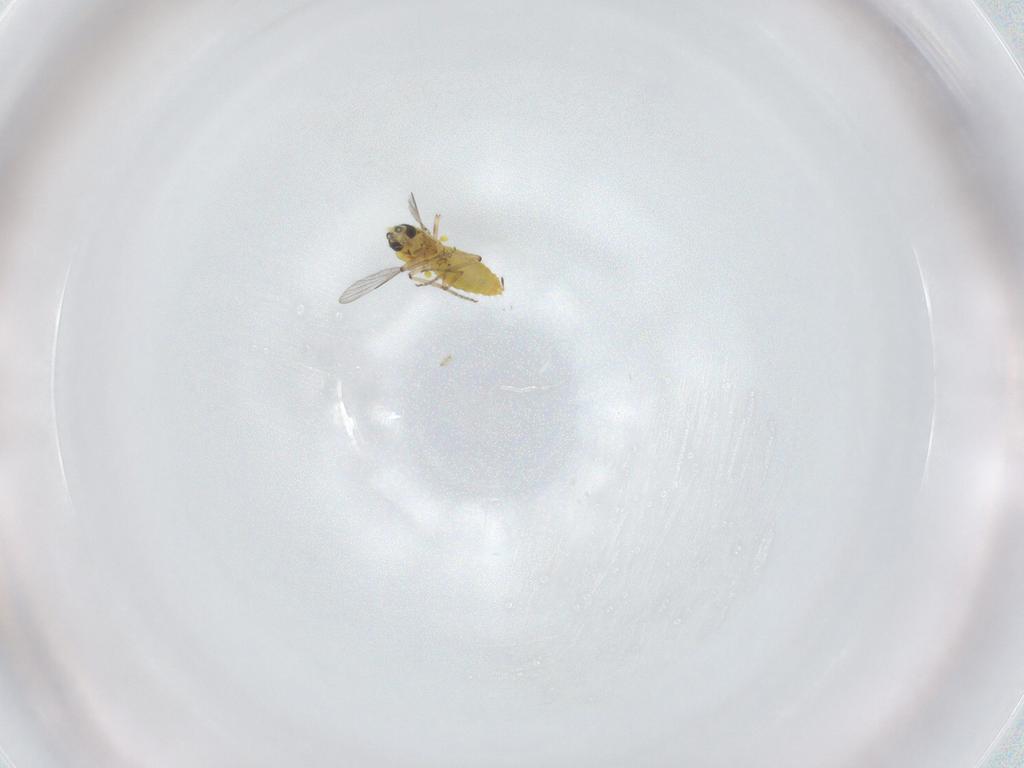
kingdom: Animalia
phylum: Arthropoda
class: Insecta
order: Diptera
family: Ceratopogonidae
